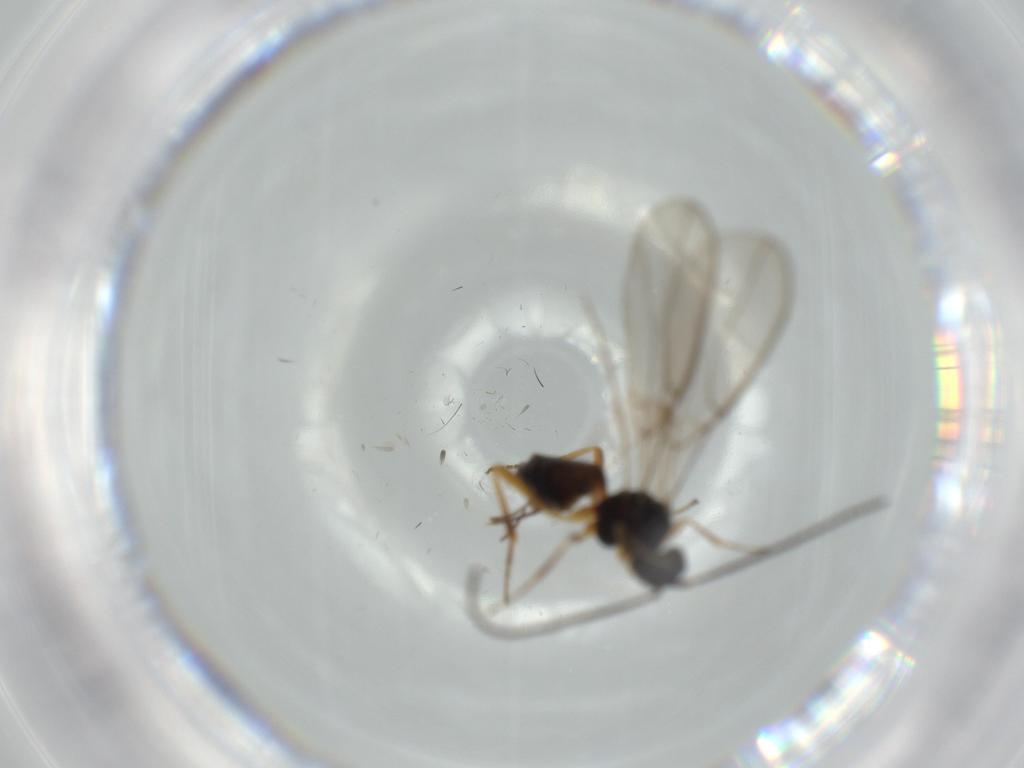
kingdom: Animalia
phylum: Arthropoda
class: Insecta
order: Hymenoptera
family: Braconidae
